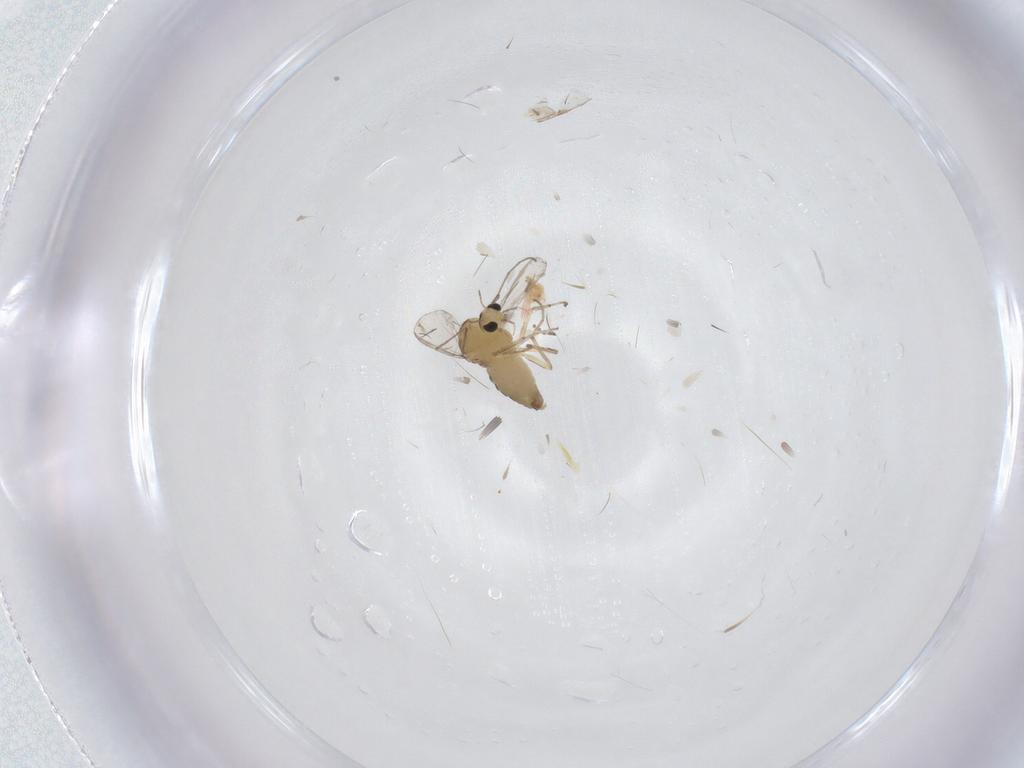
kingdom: Animalia
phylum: Arthropoda
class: Insecta
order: Diptera
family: Chironomidae
